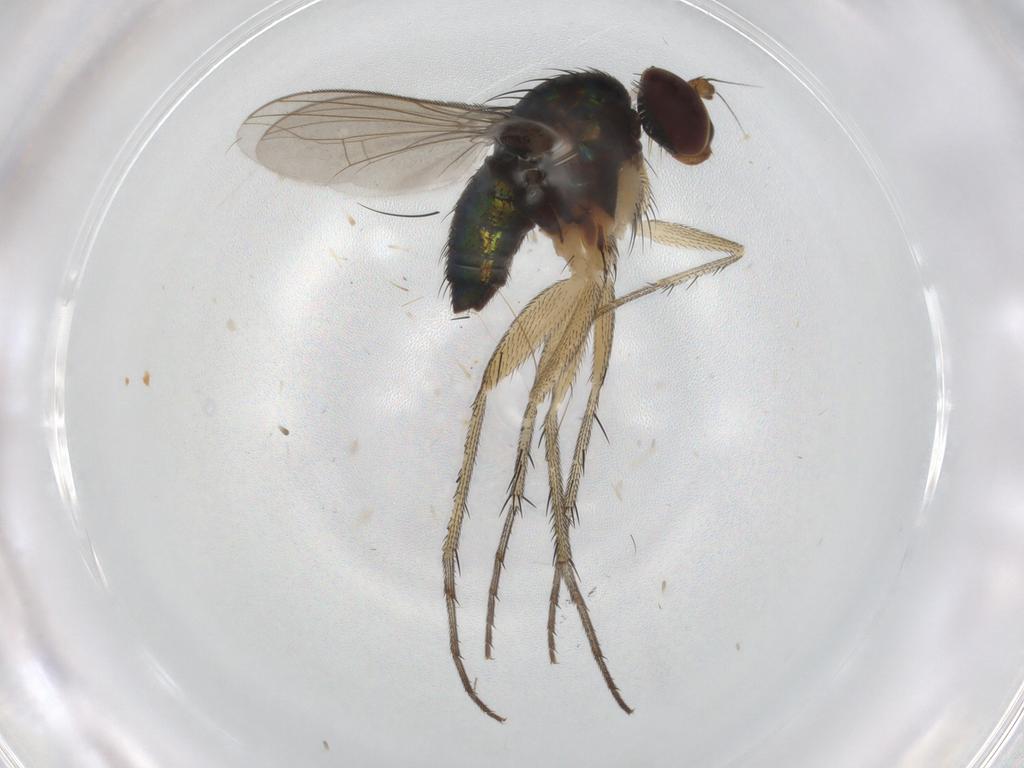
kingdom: Animalia
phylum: Arthropoda
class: Insecta
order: Diptera
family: Dolichopodidae
